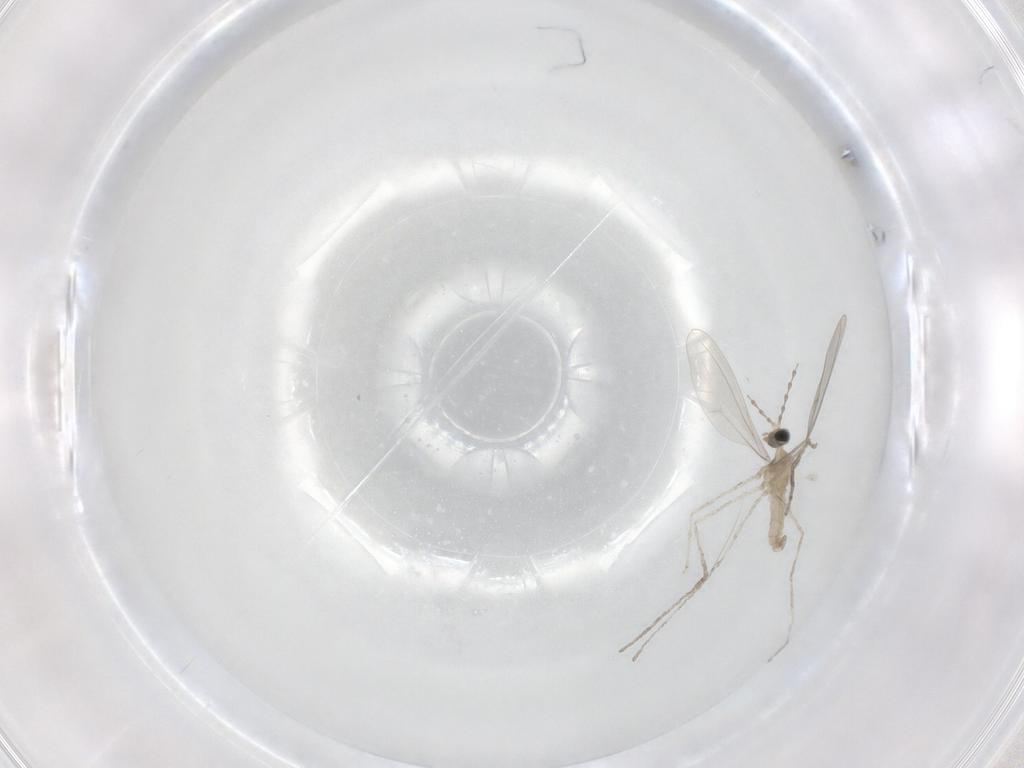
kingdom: Animalia
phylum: Arthropoda
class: Insecta
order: Diptera
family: Cecidomyiidae
